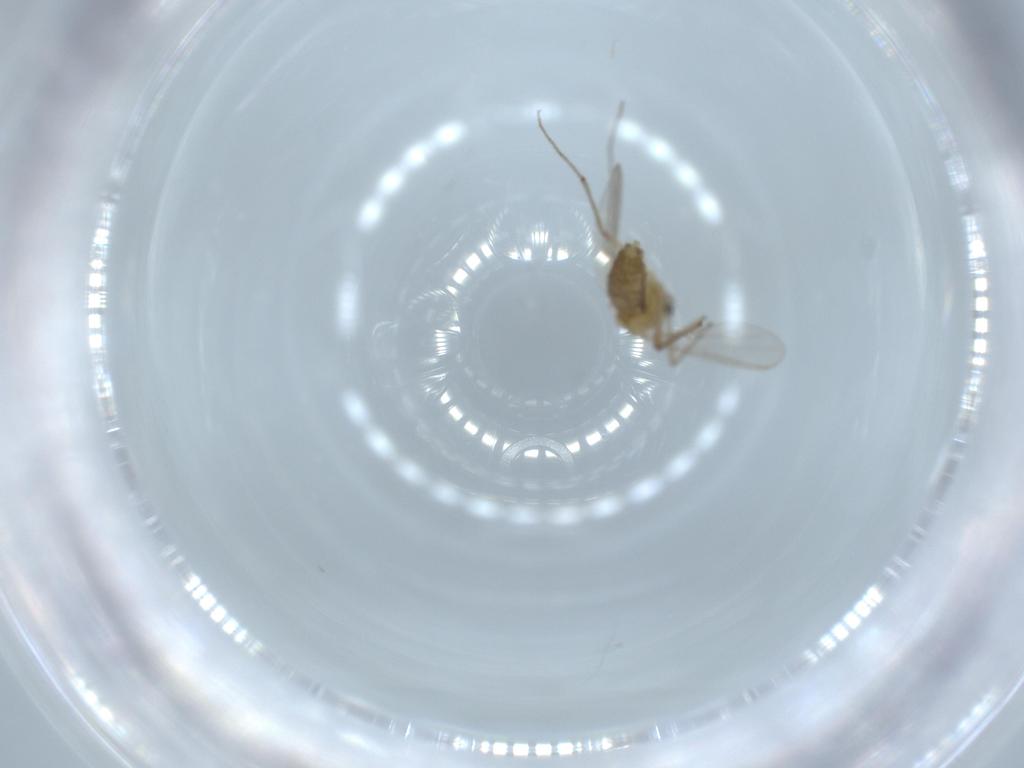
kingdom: Animalia
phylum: Arthropoda
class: Insecta
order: Diptera
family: Chironomidae
